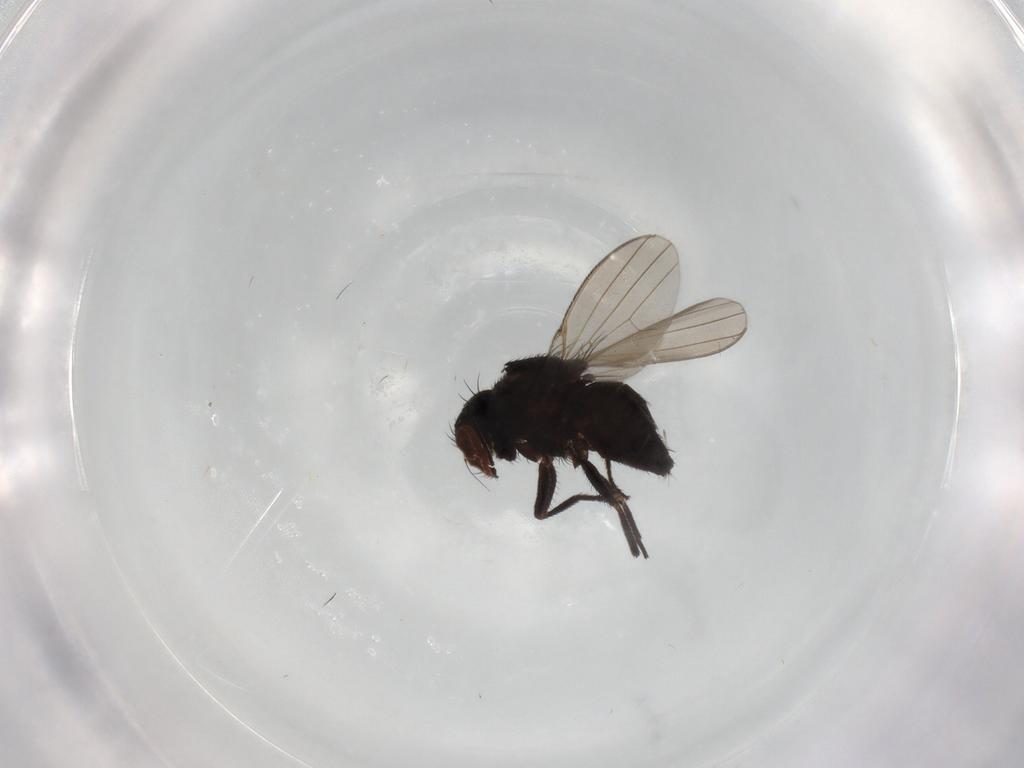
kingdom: Animalia
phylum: Arthropoda
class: Insecta
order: Diptera
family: Milichiidae
